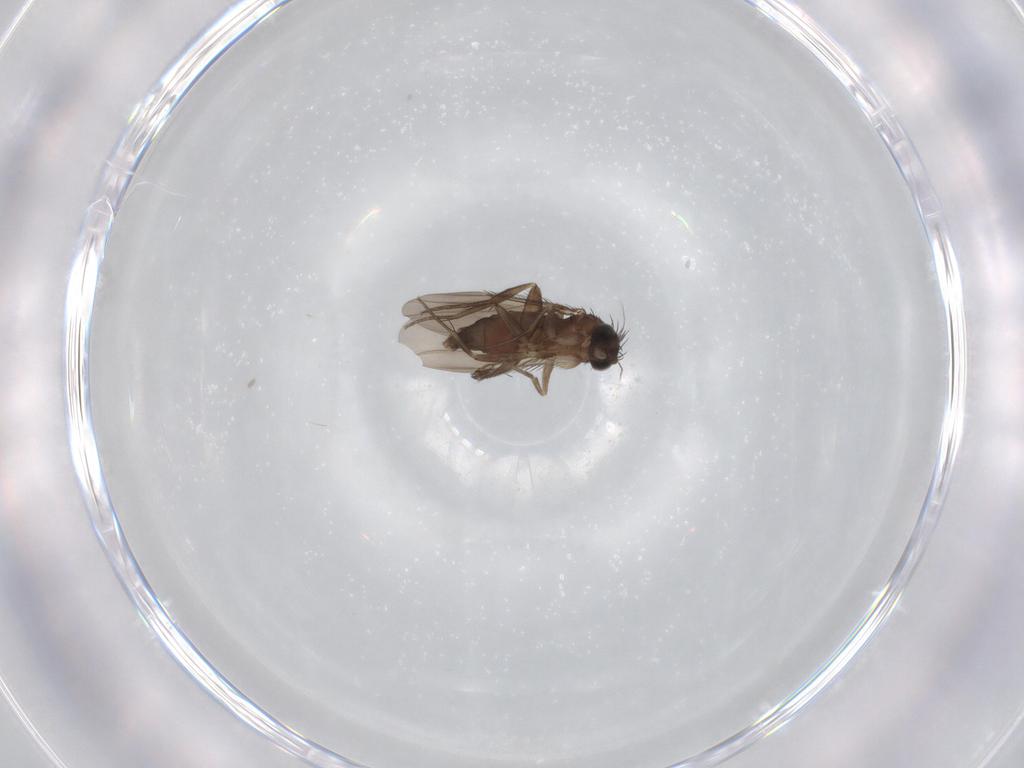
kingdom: Animalia
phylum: Arthropoda
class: Insecta
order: Diptera
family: Phoridae
